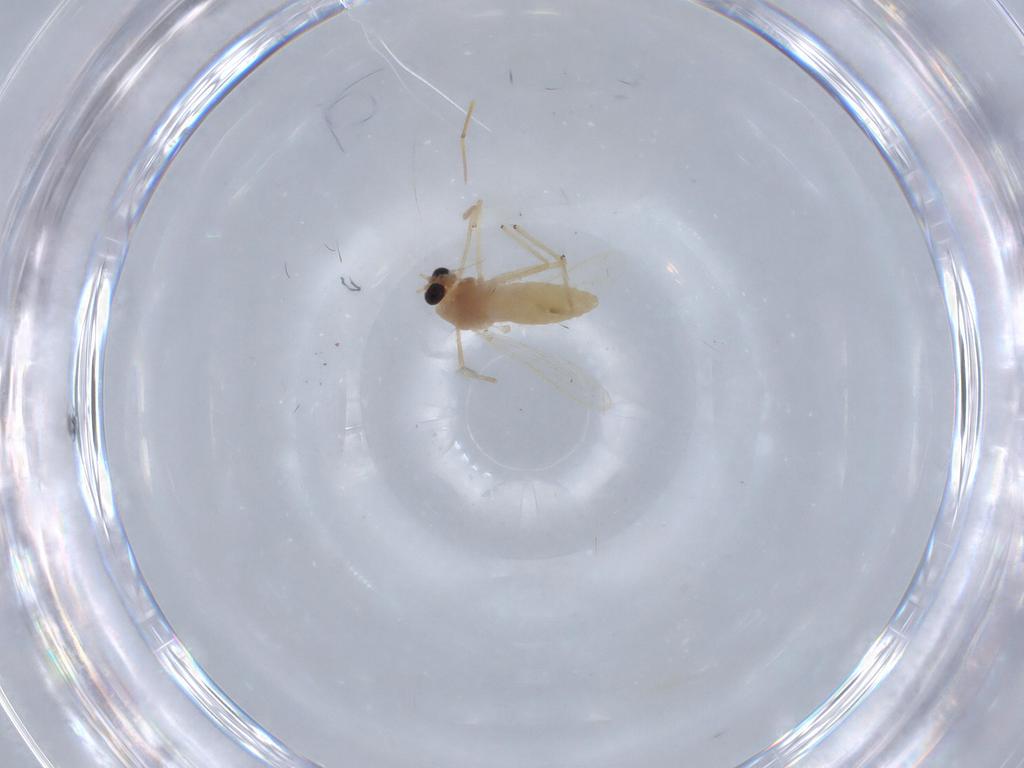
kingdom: Animalia
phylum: Arthropoda
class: Insecta
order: Diptera
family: Chironomidae
